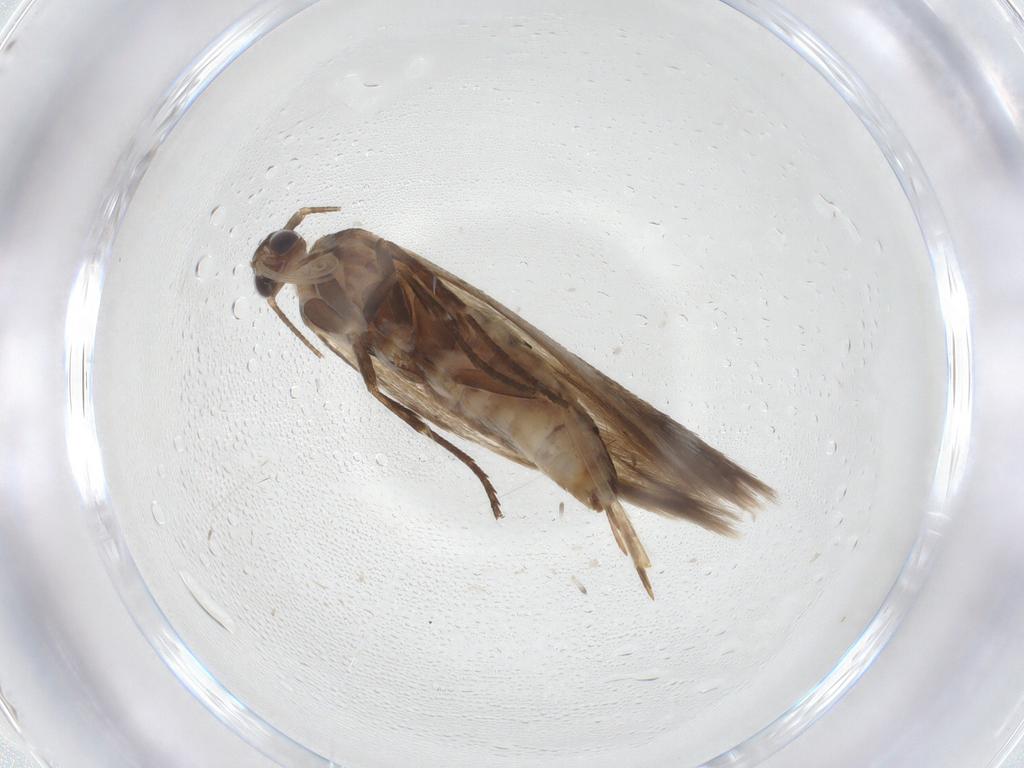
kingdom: Animalia
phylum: Arthropoda
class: Insecta
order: Lepidoptera
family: Cosmopterigidae
